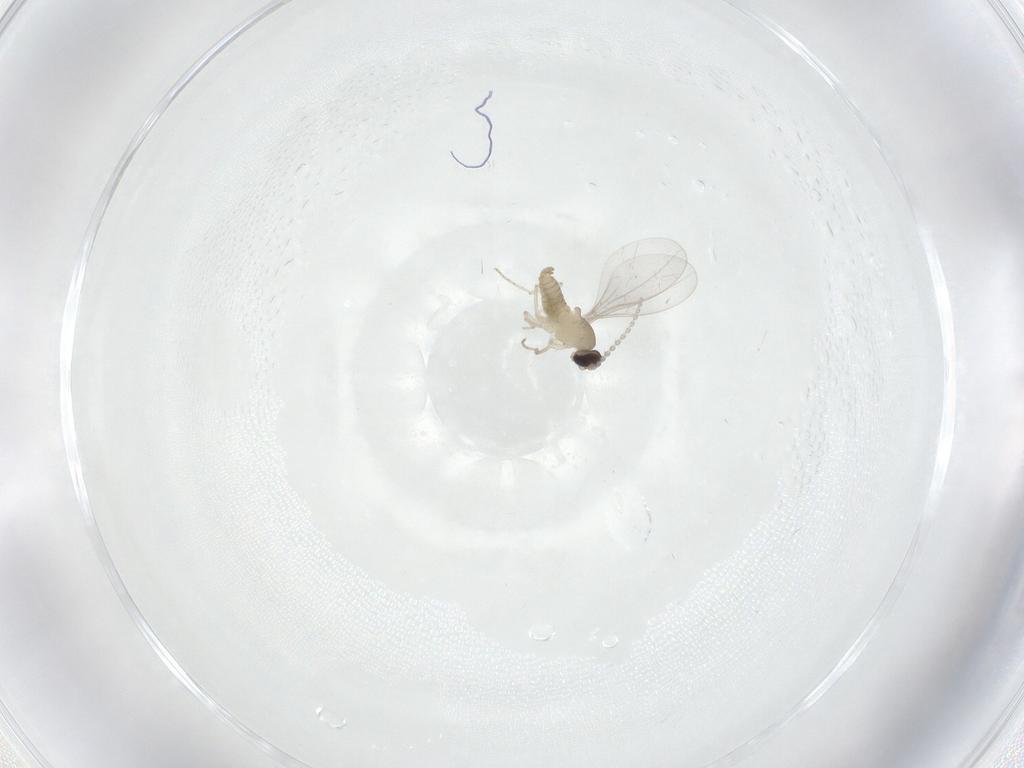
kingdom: Animalia
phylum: Arthropoda
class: Insecta
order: Diptera
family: Cecidomyiidae
